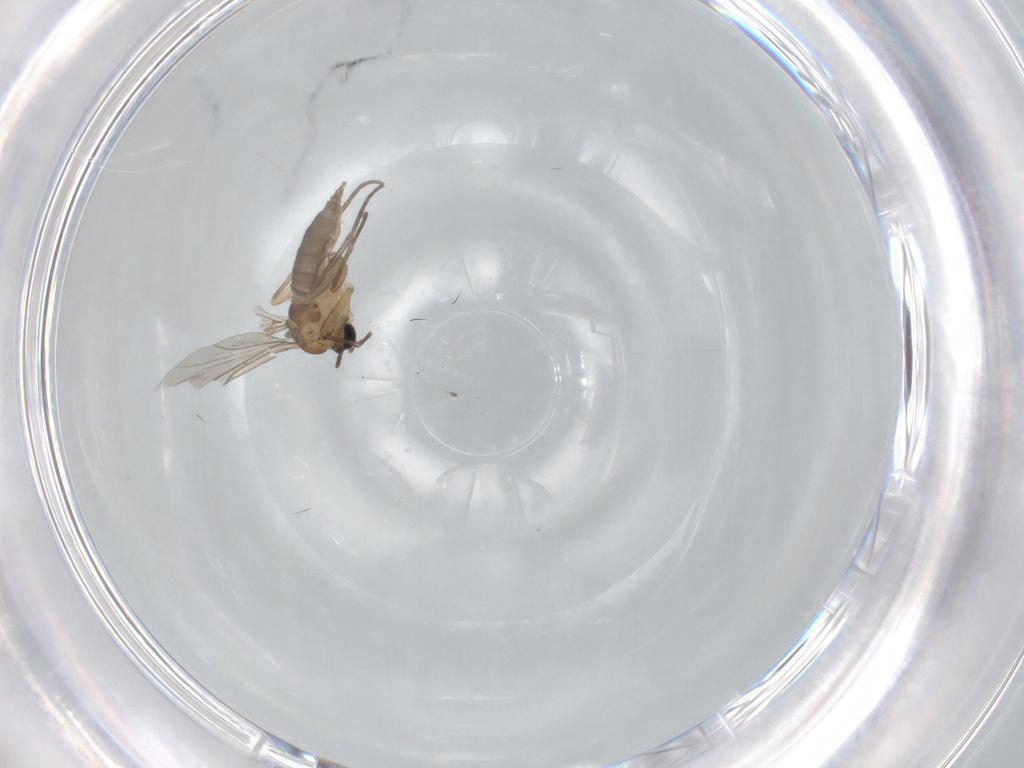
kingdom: Animalia
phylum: Arthropoda
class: Insecta
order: Diptera
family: Sciaridae
